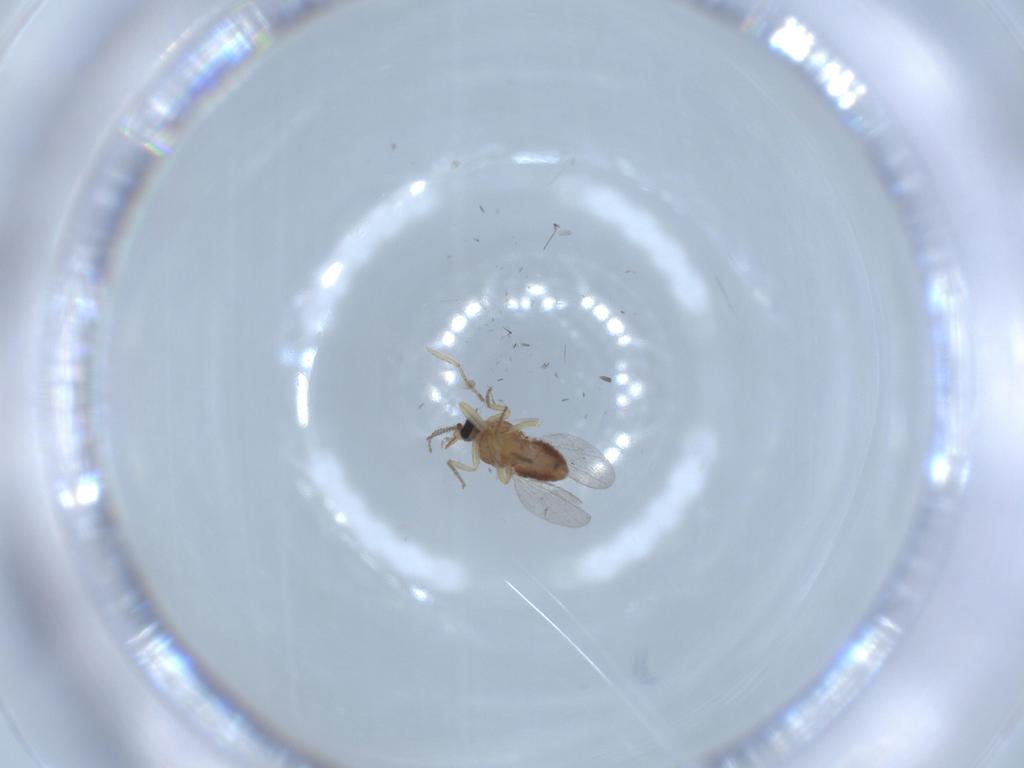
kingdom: Animalia
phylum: Arthropoda
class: Insecta
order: Diptera
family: Ceratopogonidae
